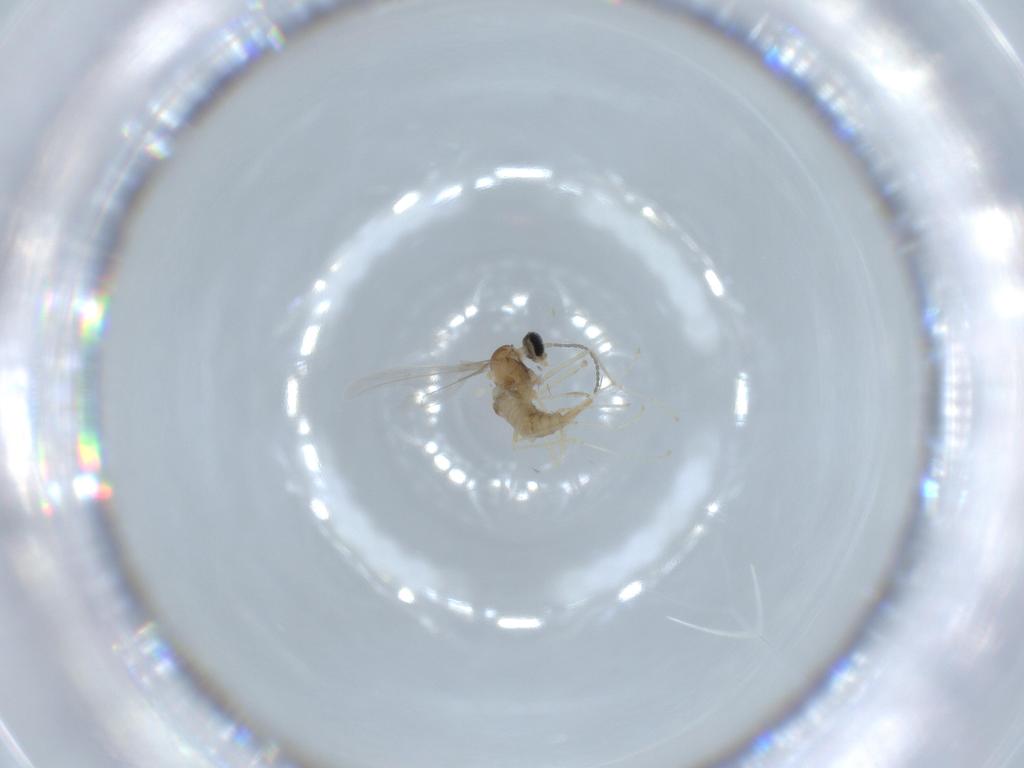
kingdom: Animalia
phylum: Arthropoda
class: Insecta
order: Diptera
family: Cecidomyiidae
